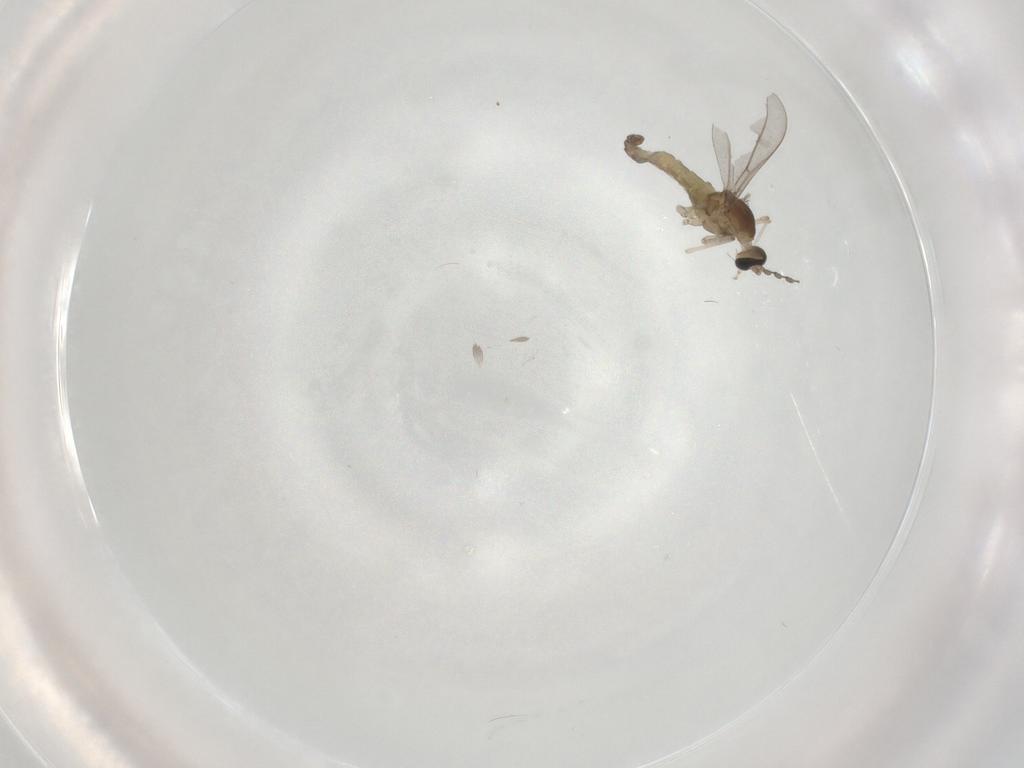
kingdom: Animalia
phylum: Arthropoda
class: Insecta
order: Diptera
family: Cecidomyiidae
